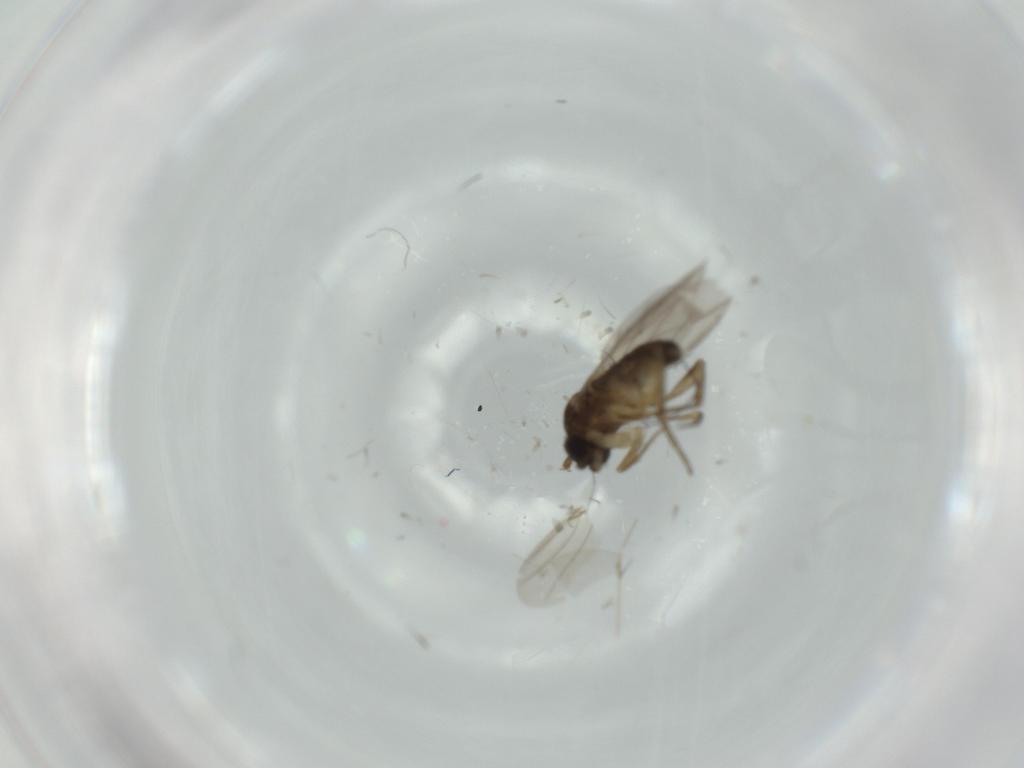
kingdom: Animalia
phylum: Arthropoda
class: Insecta
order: Diptera
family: Phoridae
